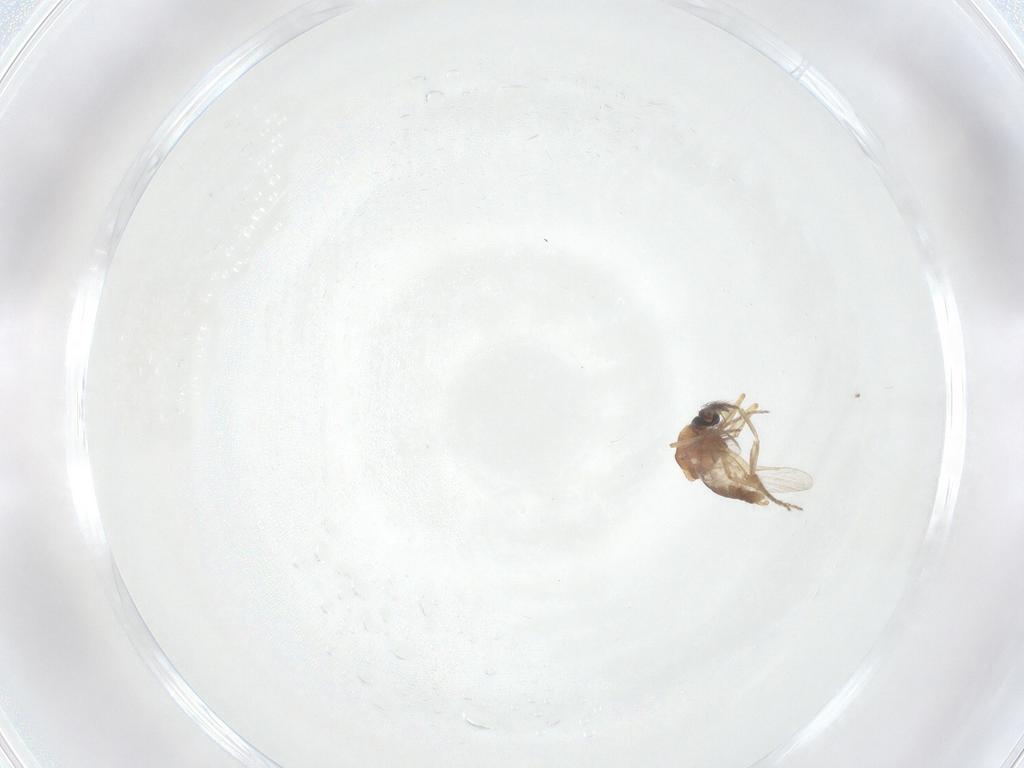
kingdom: Animalia
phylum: Arthropoda
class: Insecta
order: Diptera
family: Phoridae
